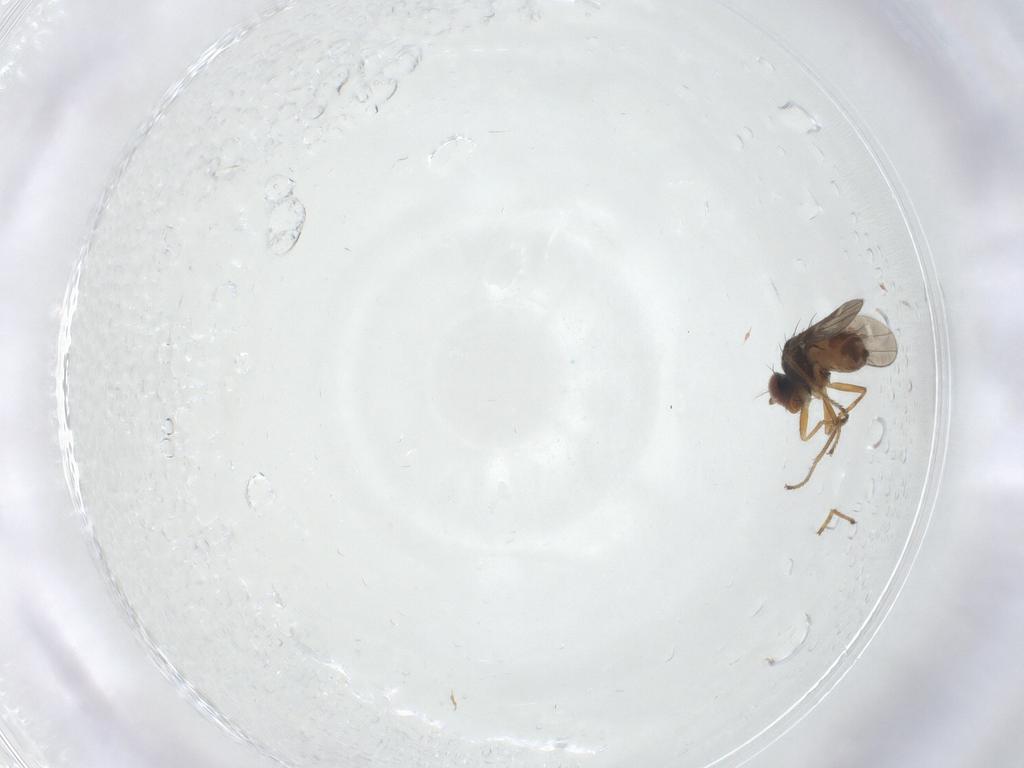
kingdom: Animalia
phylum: Arthropoda
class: Insecta
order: Diptera
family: Ephydridae
